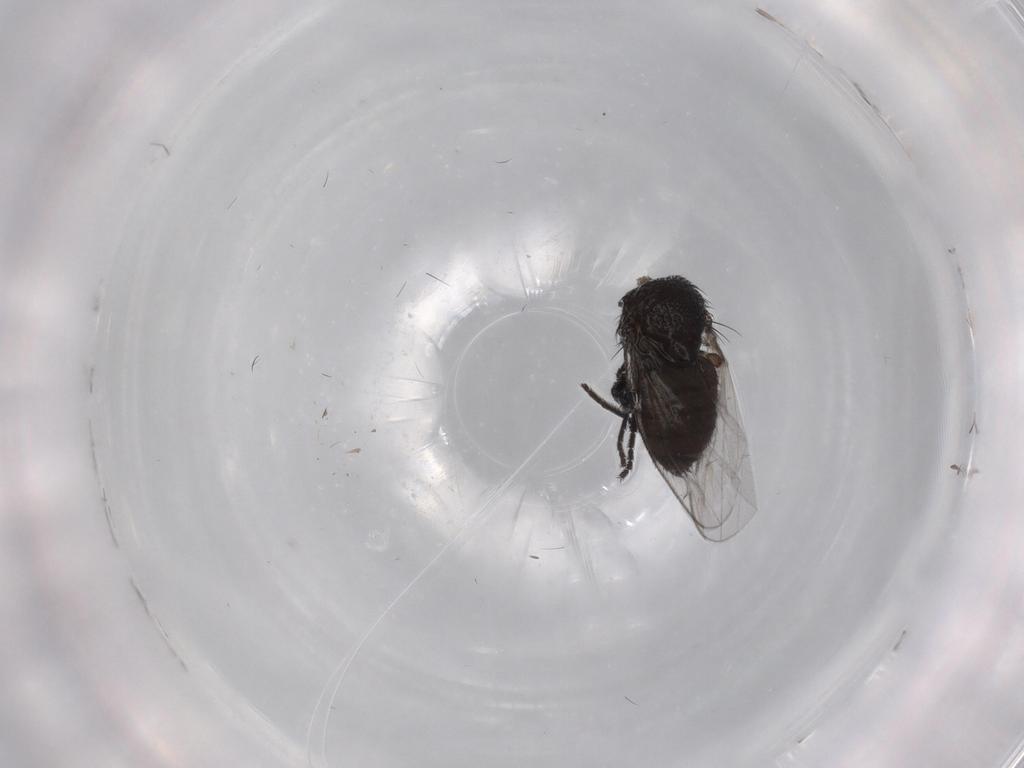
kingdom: Animalia
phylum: Arthropoda
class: Insecta
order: Diptera
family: Milichiidae
